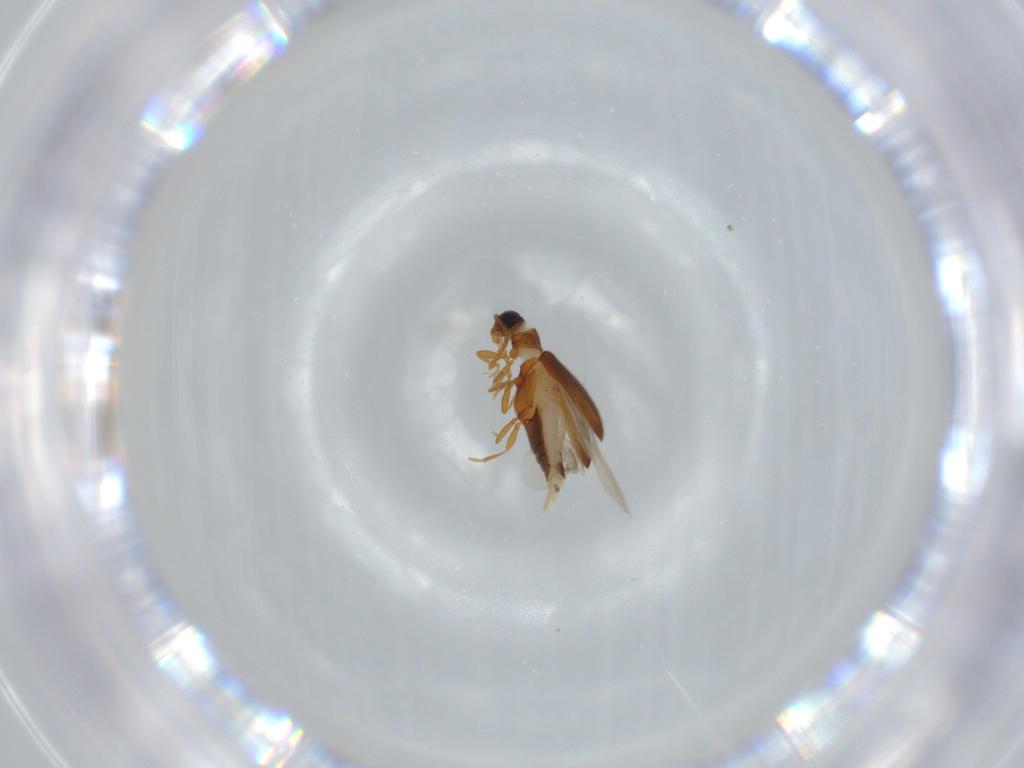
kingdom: Animalia
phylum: Arthropoda
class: Insecta
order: Coleoptera
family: Aderidae
